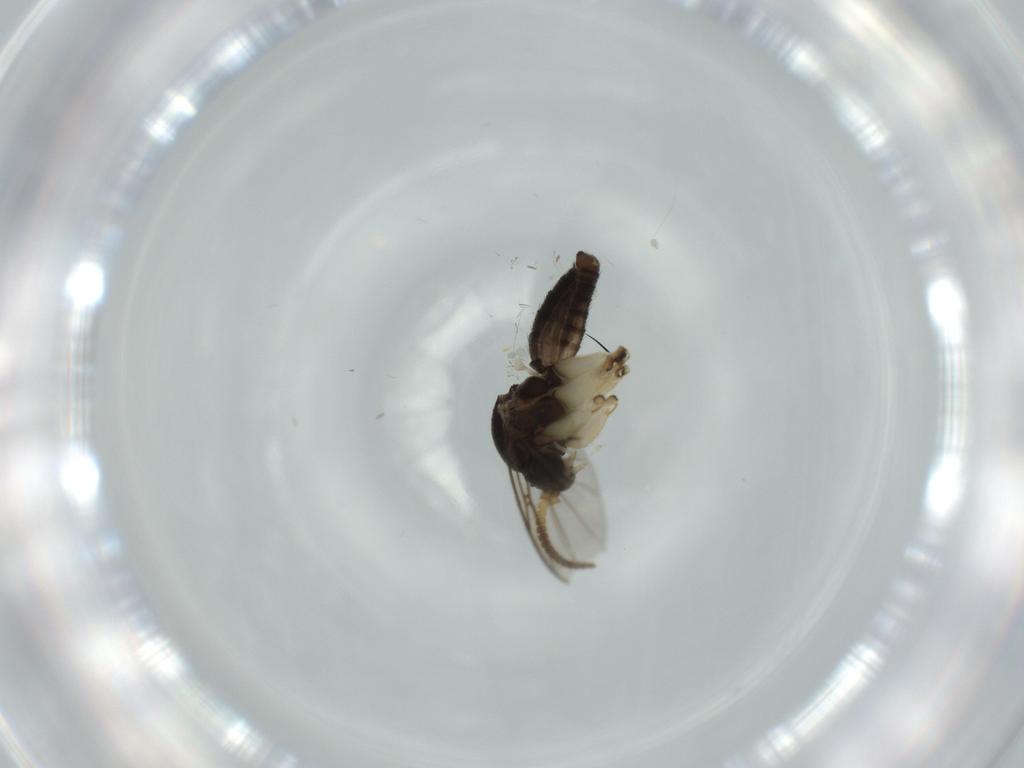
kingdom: Animalia
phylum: Arthropoda
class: Insecta
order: Diptera
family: Mycetophilidae
